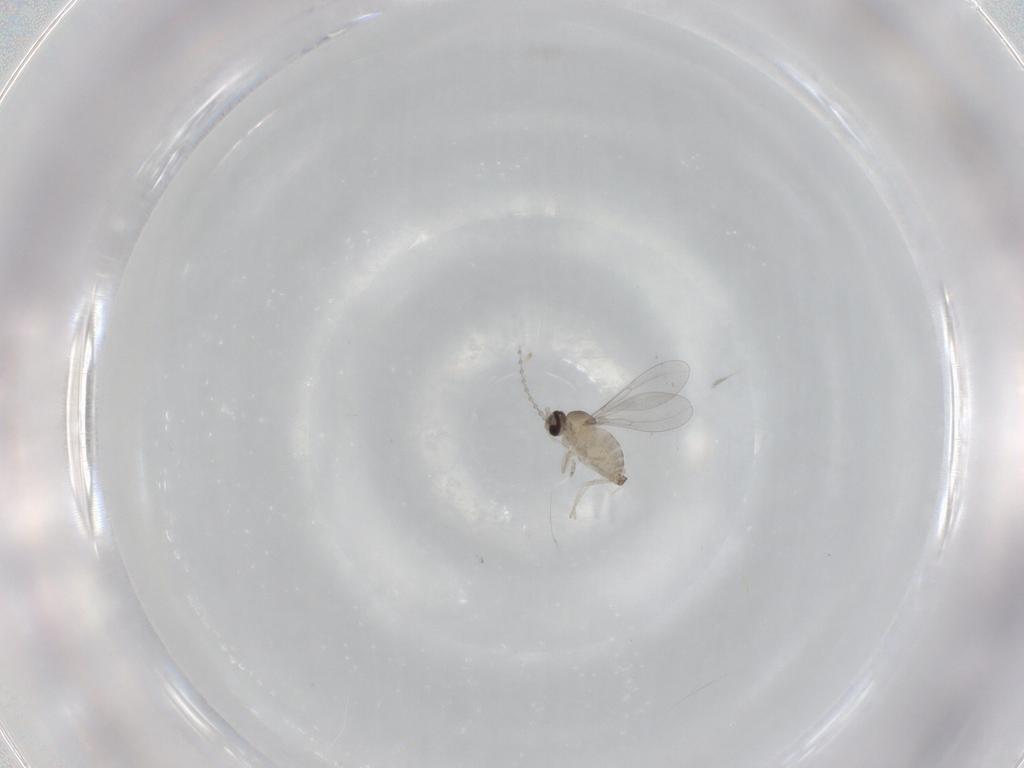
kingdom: Animalia
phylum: Arthropoda
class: Insecta
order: Diptera
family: Cecidomyiidae
